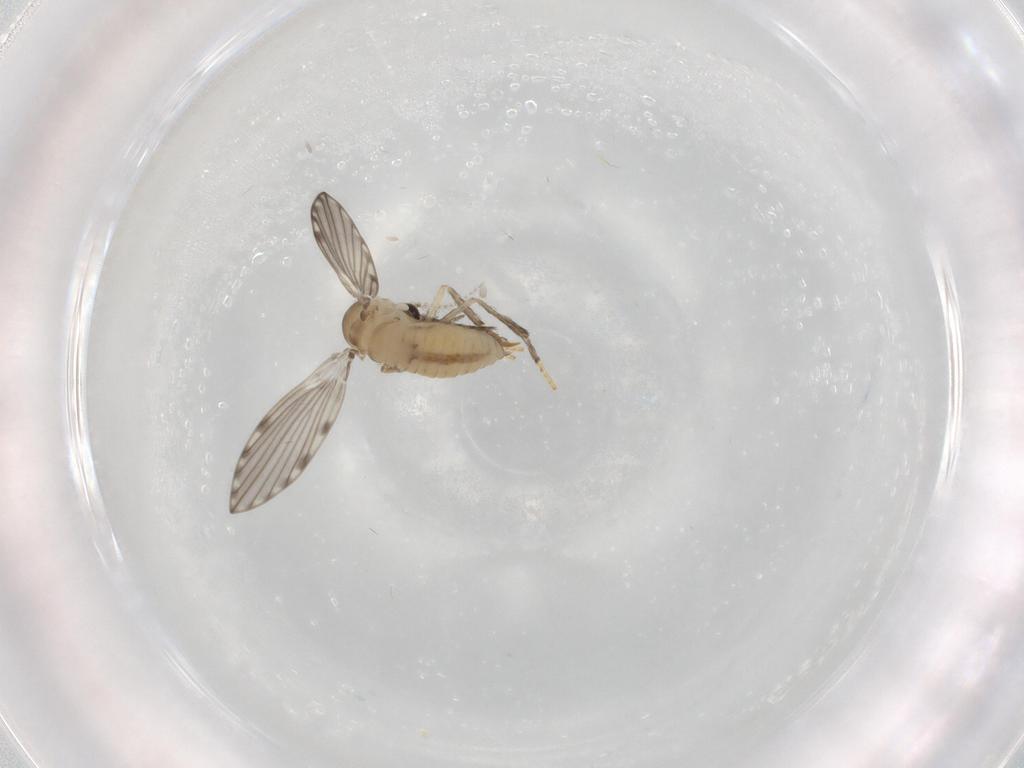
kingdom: Animalia
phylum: Arthropoda
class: Insecta
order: Diptera
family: Psychodidae
